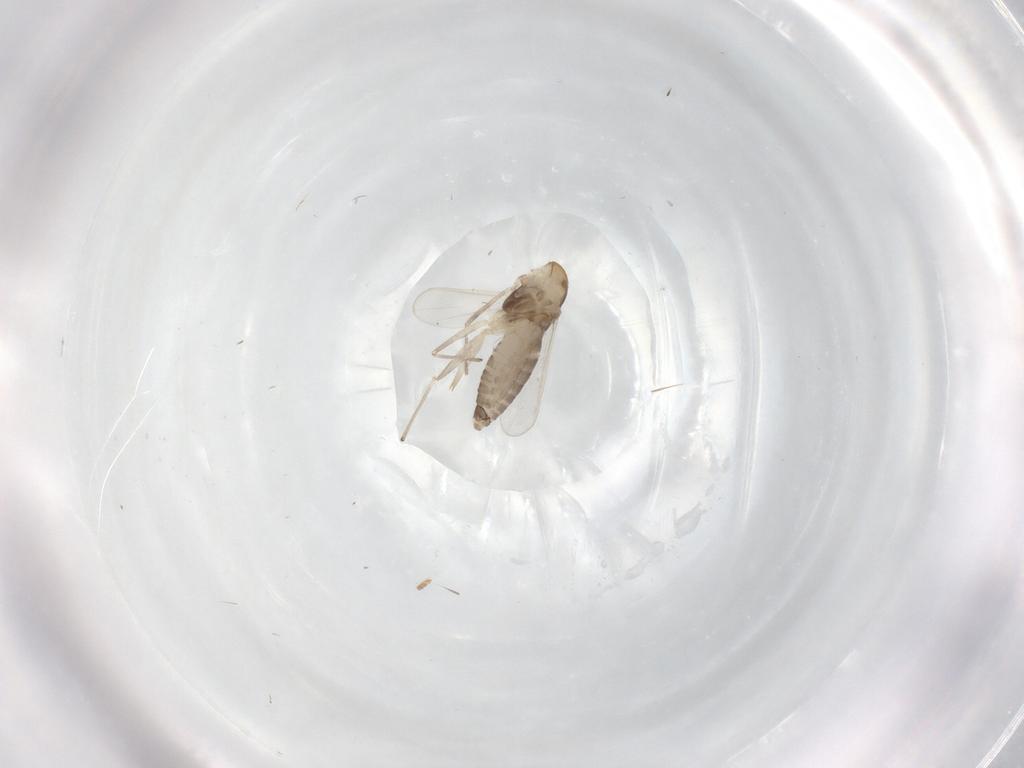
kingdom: Animalia
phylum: Arthropoda
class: Insecta
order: Diptera
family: Chironomidae
